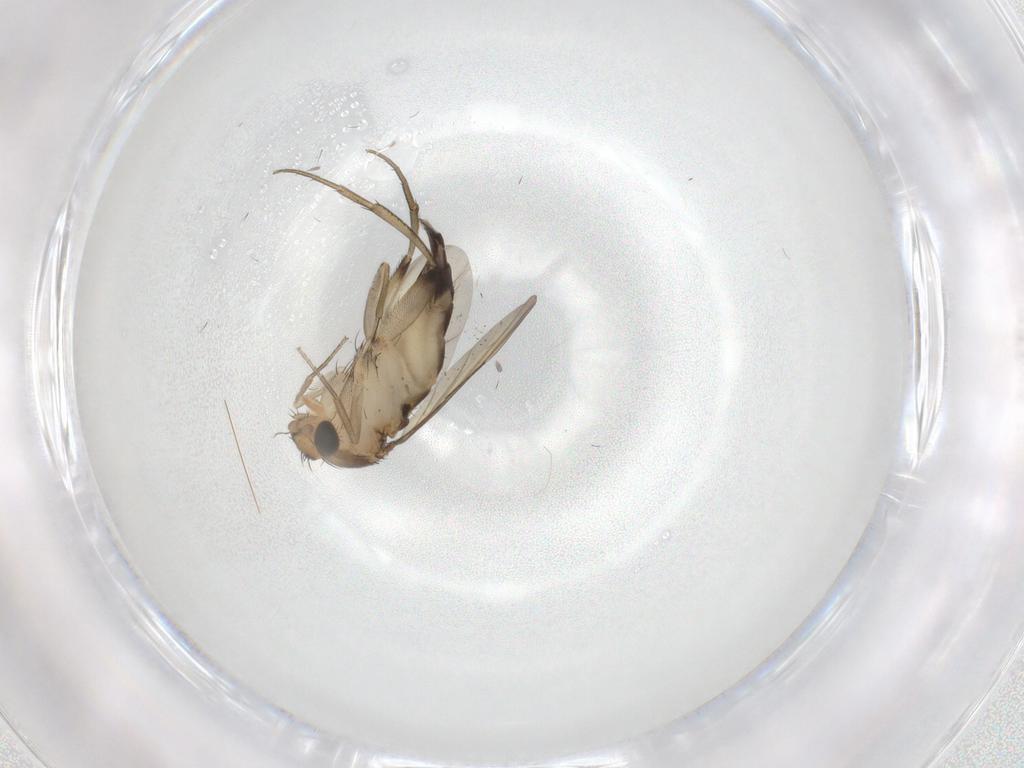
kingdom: Animalia
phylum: Arthropoda
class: Insecta
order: Diptera
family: Phoridae
